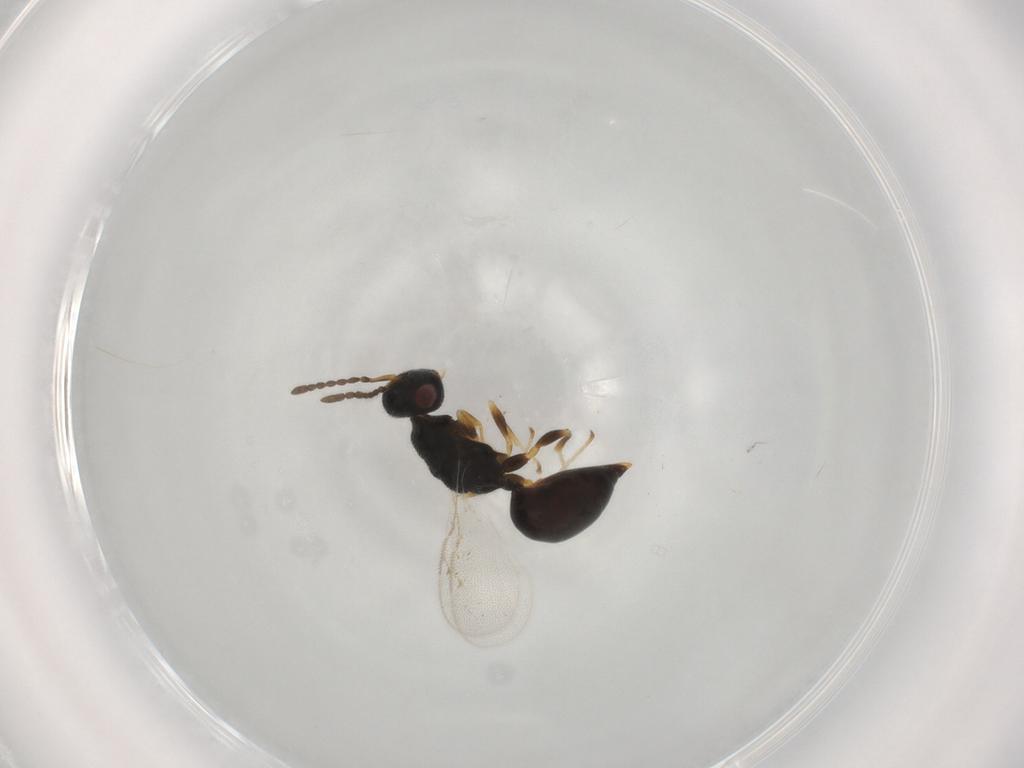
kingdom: Animalia
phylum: Arthropoda
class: Insecta
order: Hymenoptera
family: Eurytomidae
